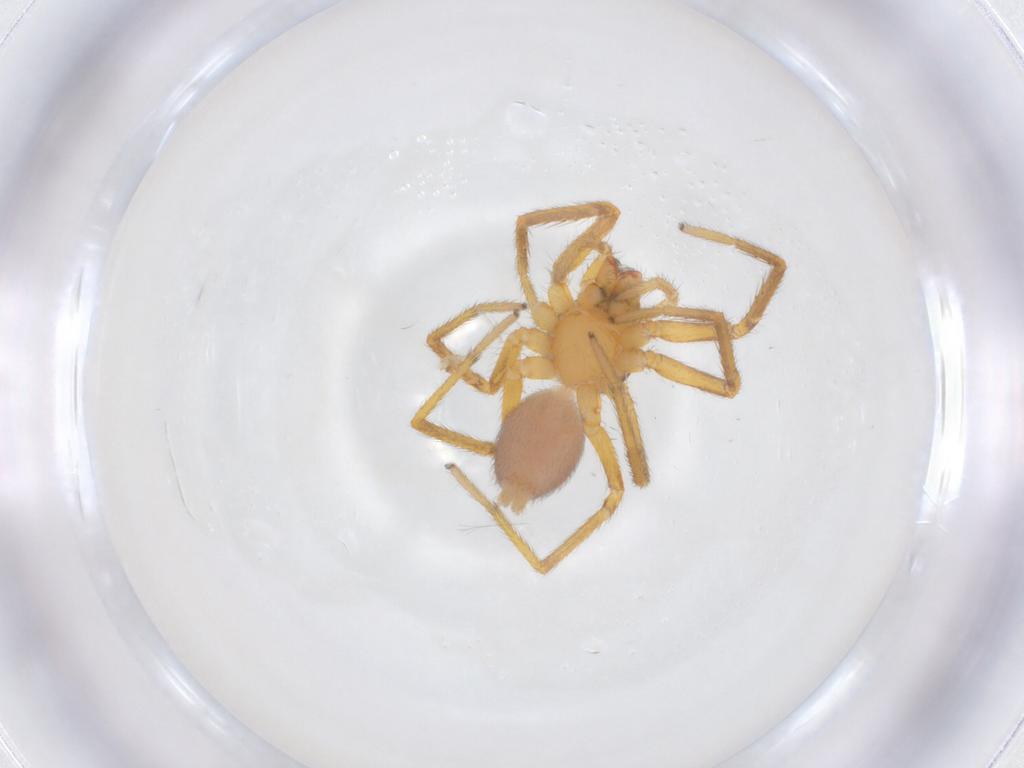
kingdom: Animalia
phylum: Arthropoda
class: Arachnida
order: Araneae
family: Corinnidae
